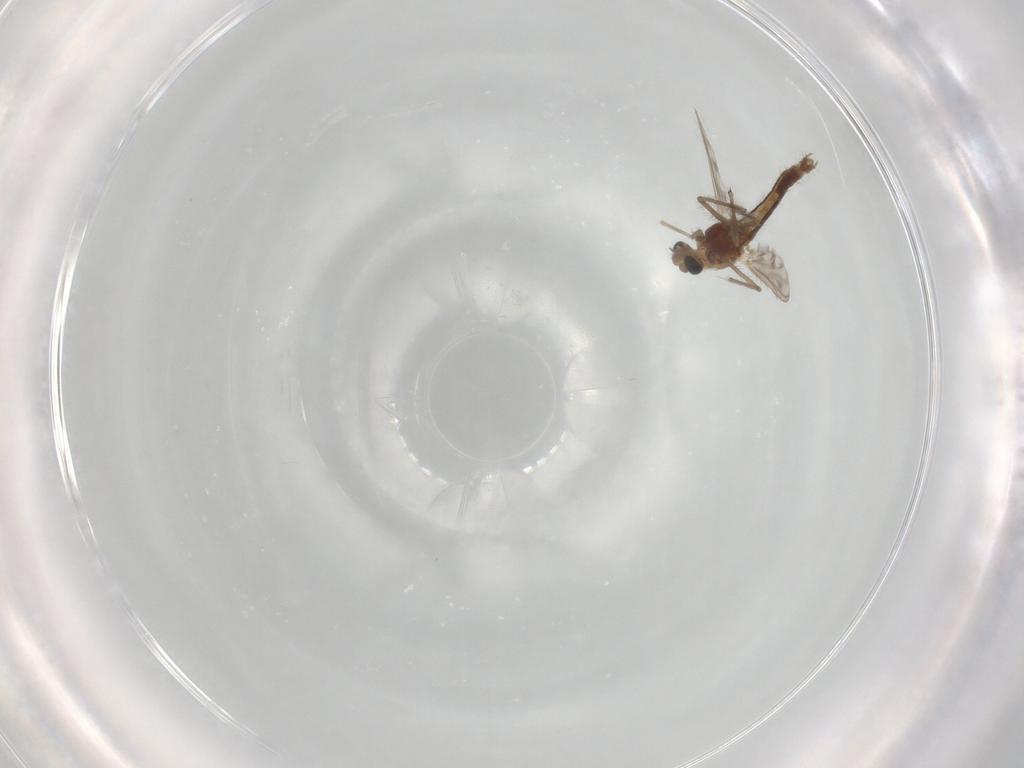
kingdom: Animalia
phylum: Arthropoda
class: Insecta
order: Diptera
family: Chironomidae
